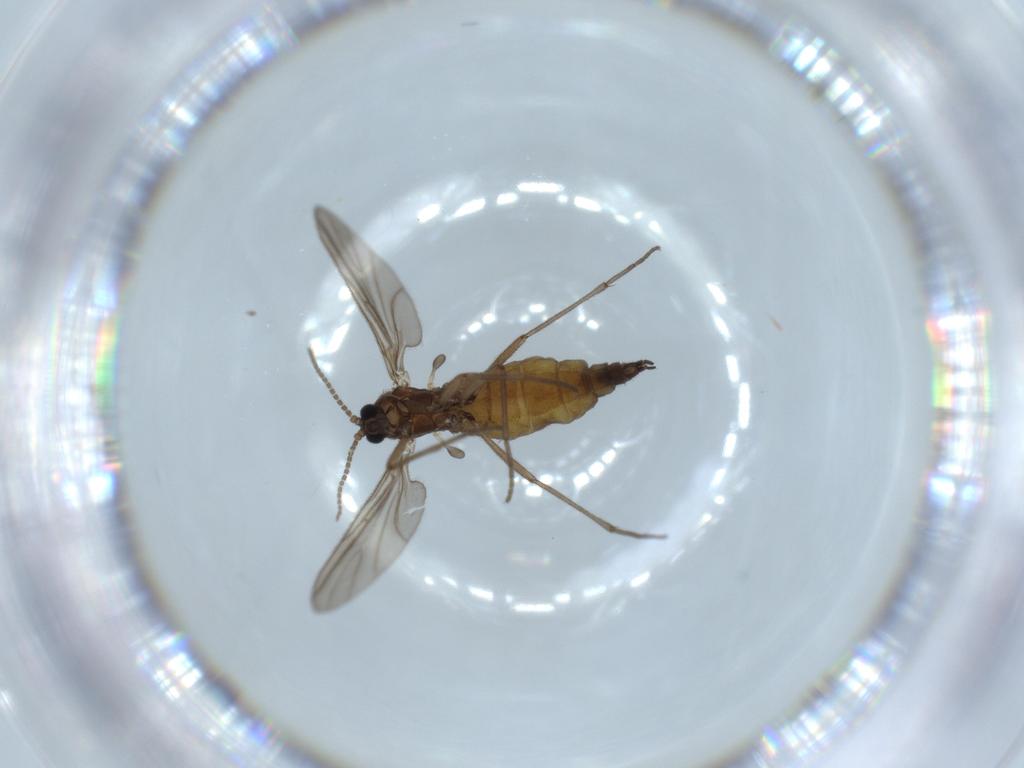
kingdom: Animalia
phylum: Arthropoda
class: Insecta
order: Diptera
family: Sciaridae
